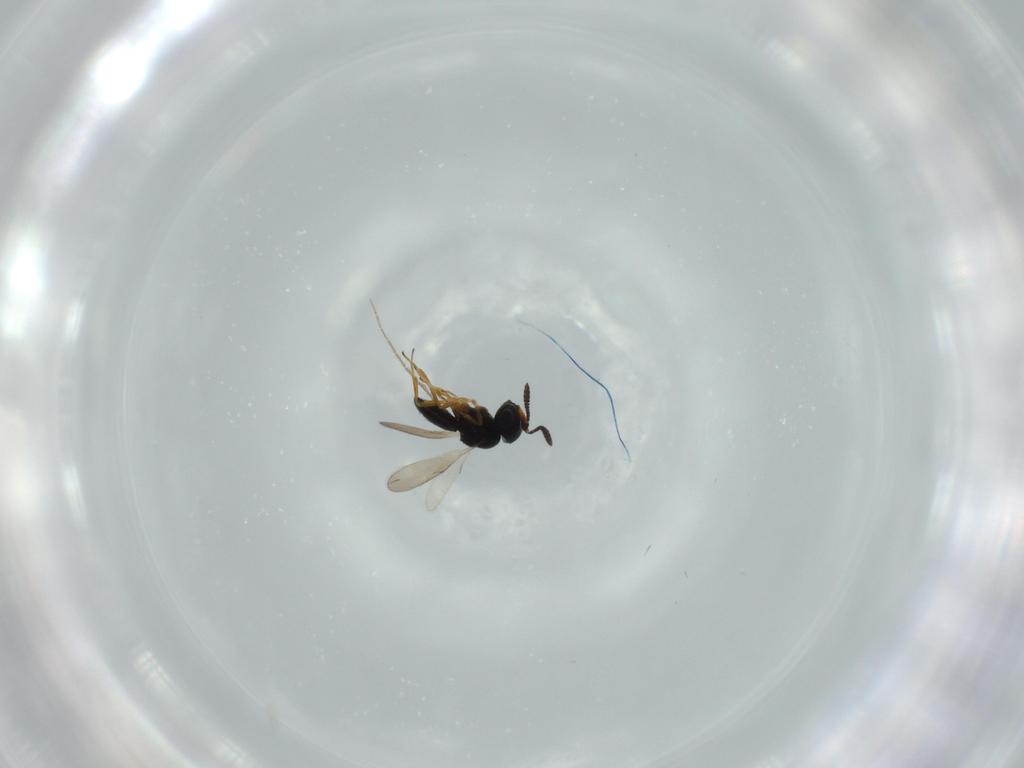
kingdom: Animalia
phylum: Arthropoda
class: Insecta
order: Hymenoptera
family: Scelionidae
